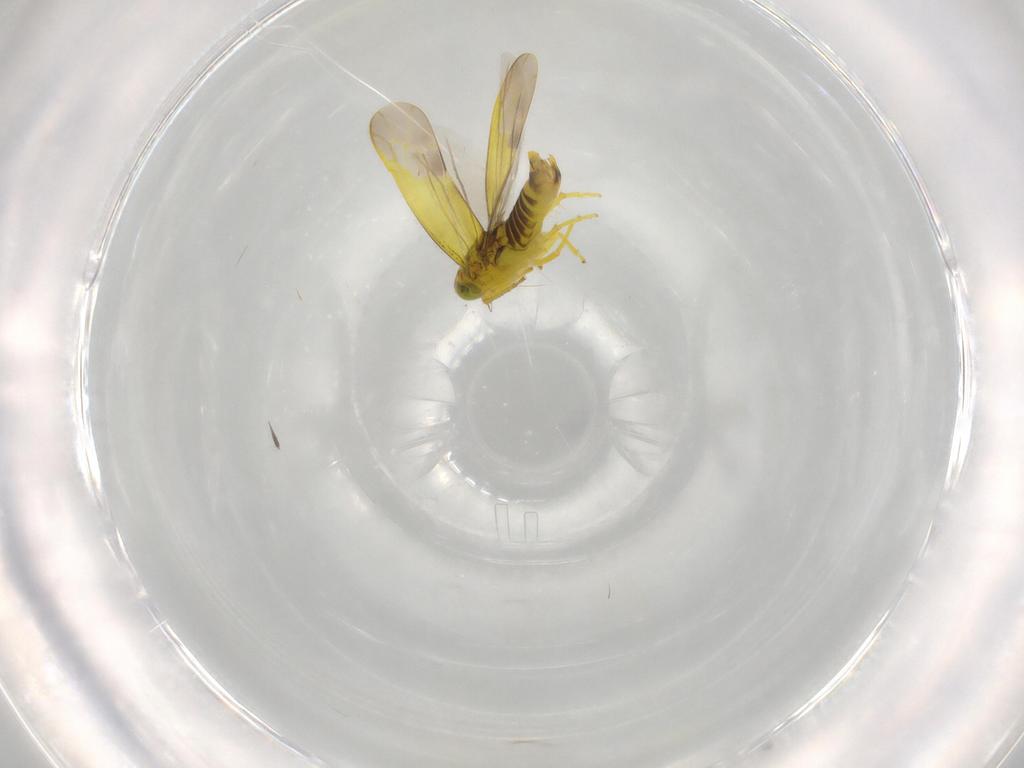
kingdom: Animalia
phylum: Arthropoda
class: Insecta
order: Hemiptera
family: Cicadellidae
